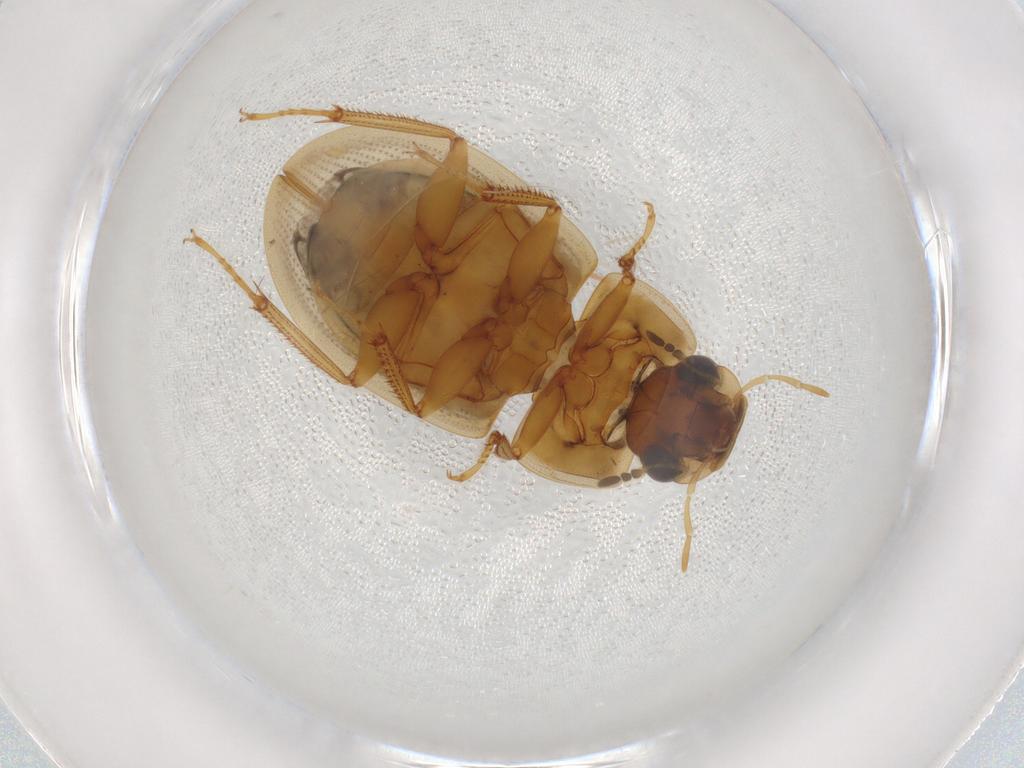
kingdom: Animalia
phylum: Arthropoda
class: Insecta
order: Coleoptera
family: Hydrophilidae
